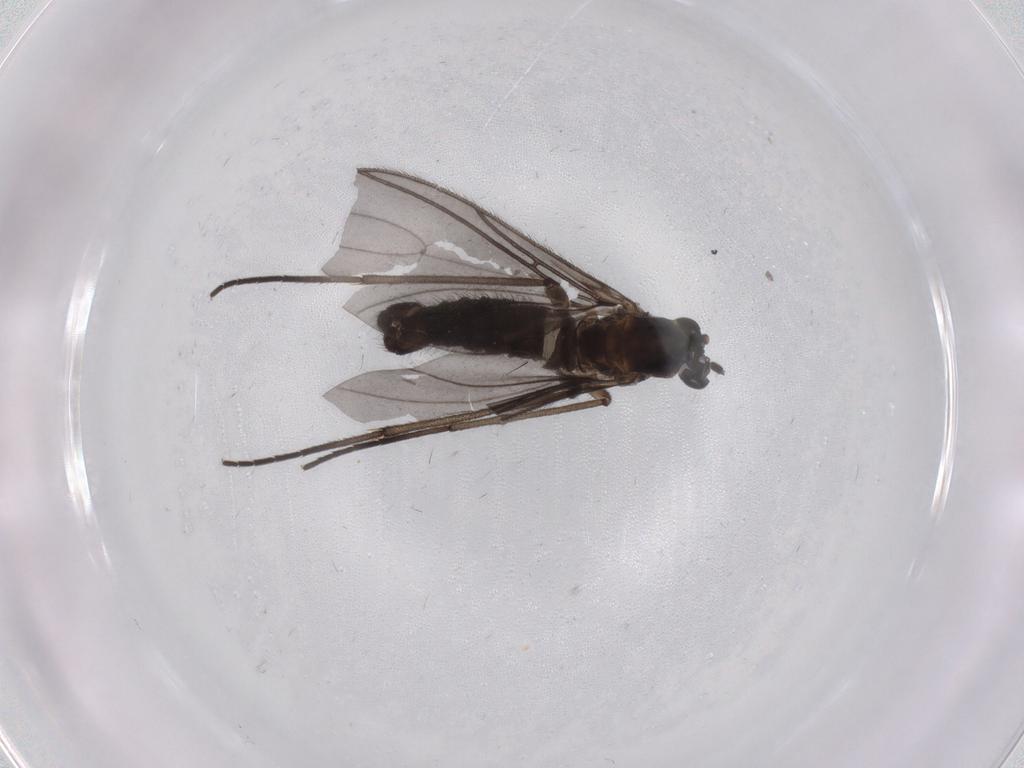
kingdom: Animalia
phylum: Arthropoda
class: Insecta
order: Diptera
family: Sciaridae
